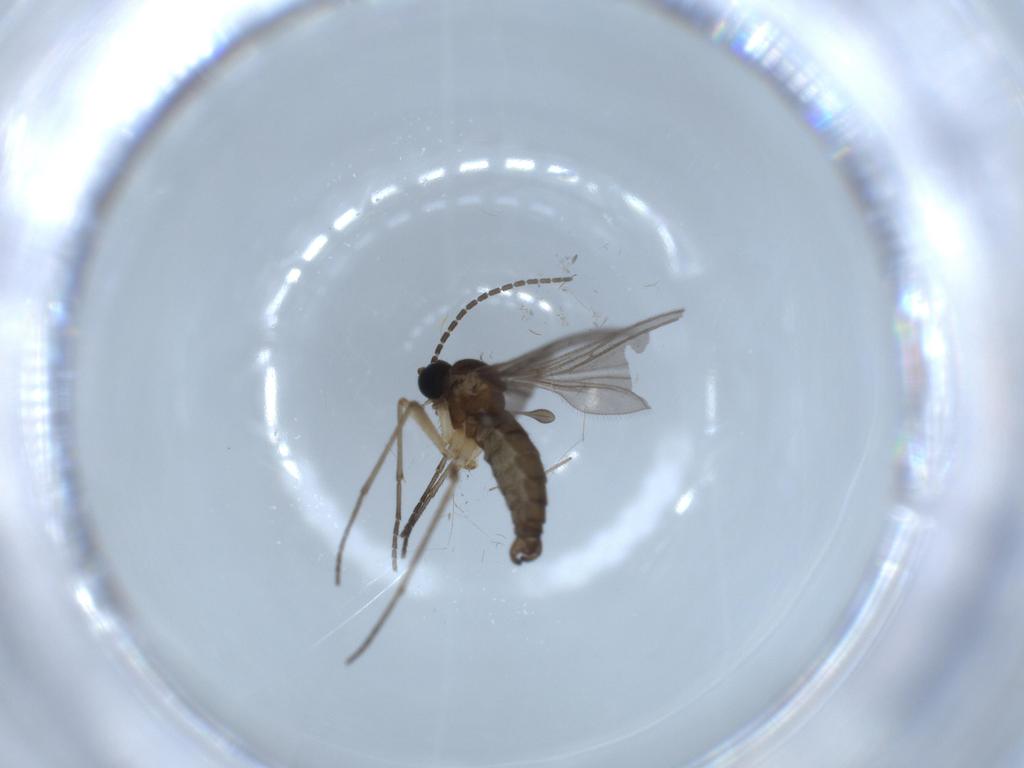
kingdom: Animalia
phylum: Arthropoda
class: Insecta
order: Diptera
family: Sciaridae
